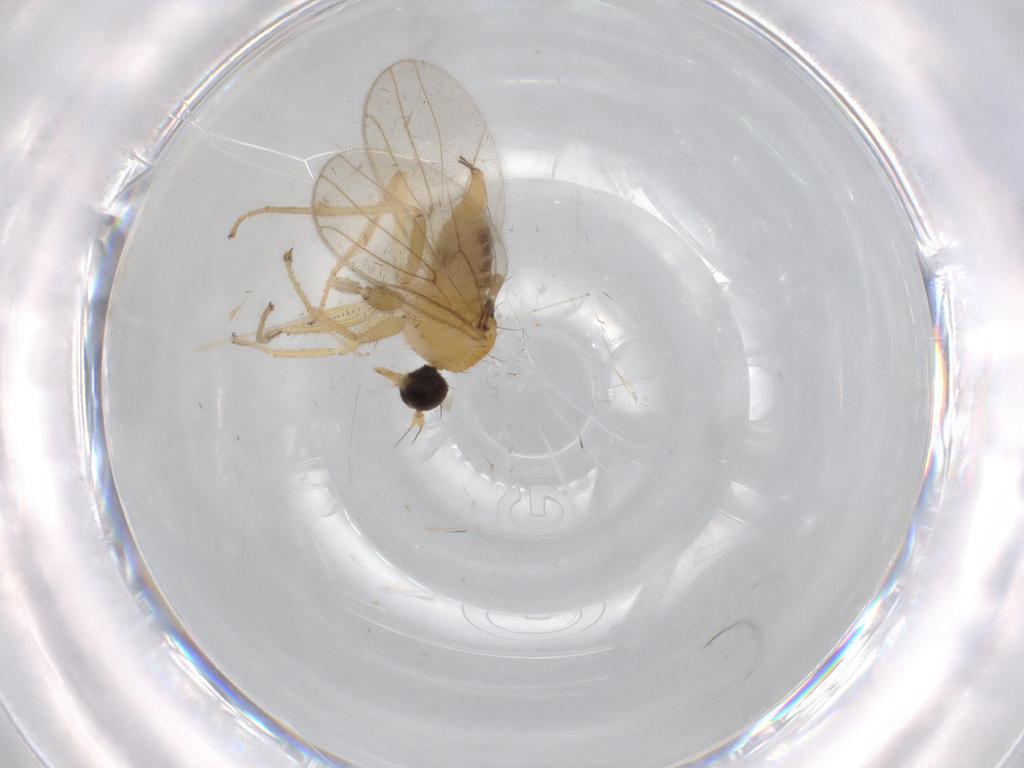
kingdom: Animalia
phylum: Arthropoda
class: Insecta
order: Diptera
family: Hybotidae
